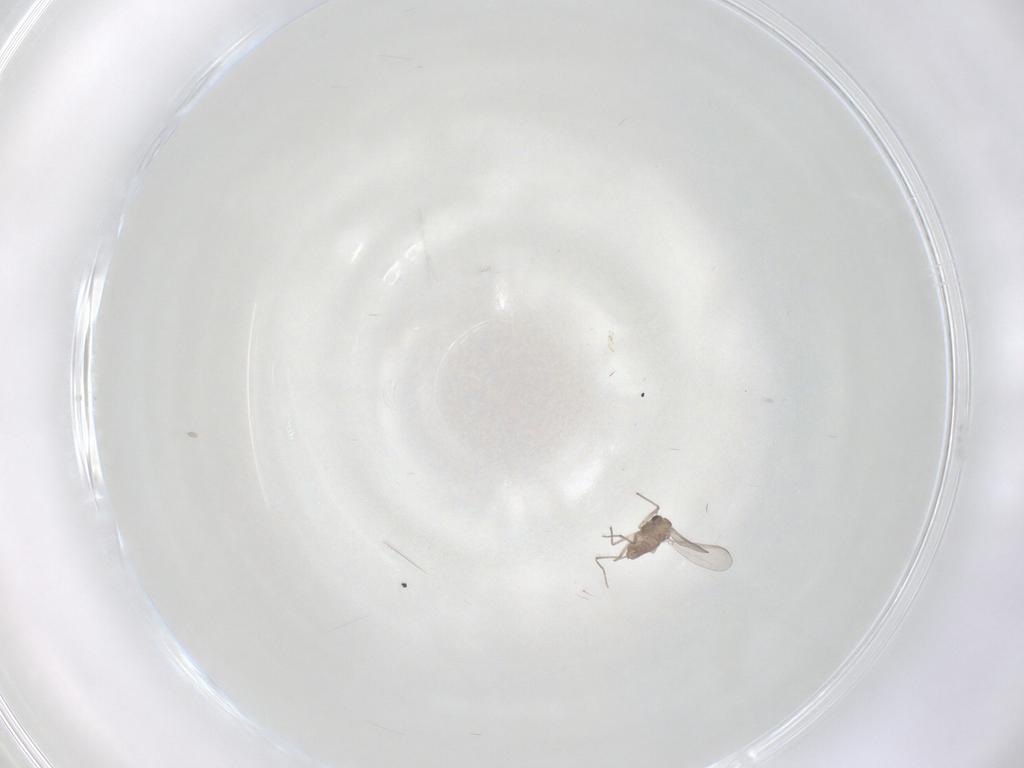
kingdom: Animalia
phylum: Arthropoda
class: Insecta
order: Diptera
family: Chironomidae
